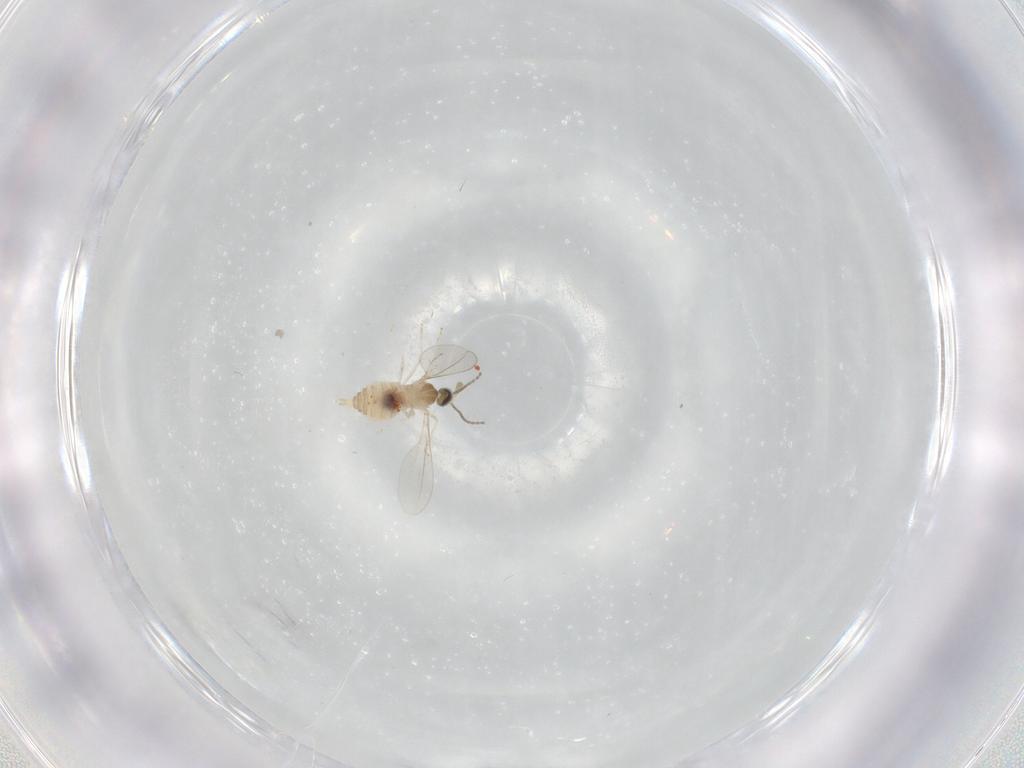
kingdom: Animalia
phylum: Arthropoda
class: Insecta
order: Diptera
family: Cecidomyiidae
